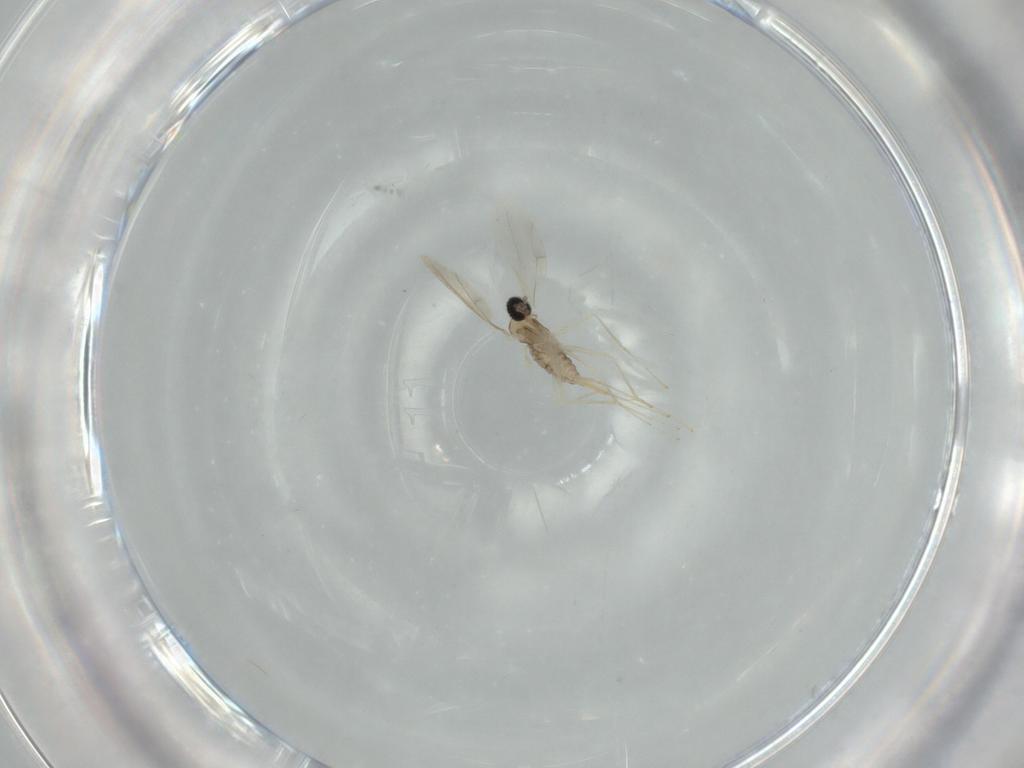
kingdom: Animalia
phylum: Arthropoda
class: Insecta
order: Diptera
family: Cecidomyiidae
